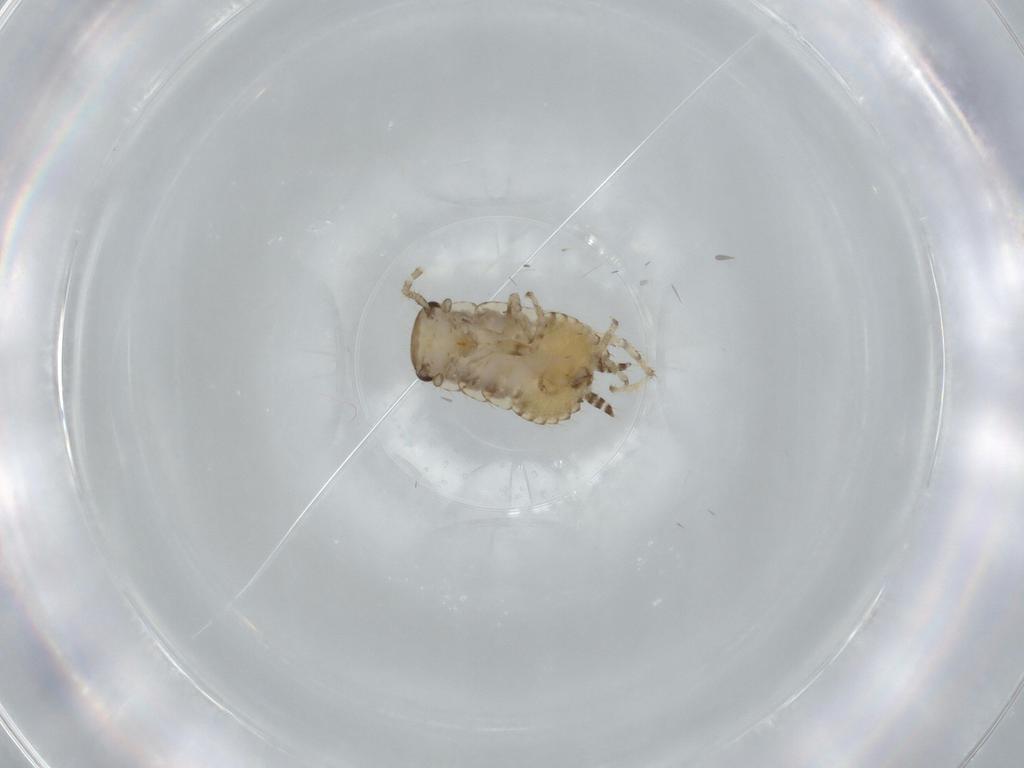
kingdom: Animalia
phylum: Arthropoda
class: Insecta
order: Blattodea
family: Ectobiidae
